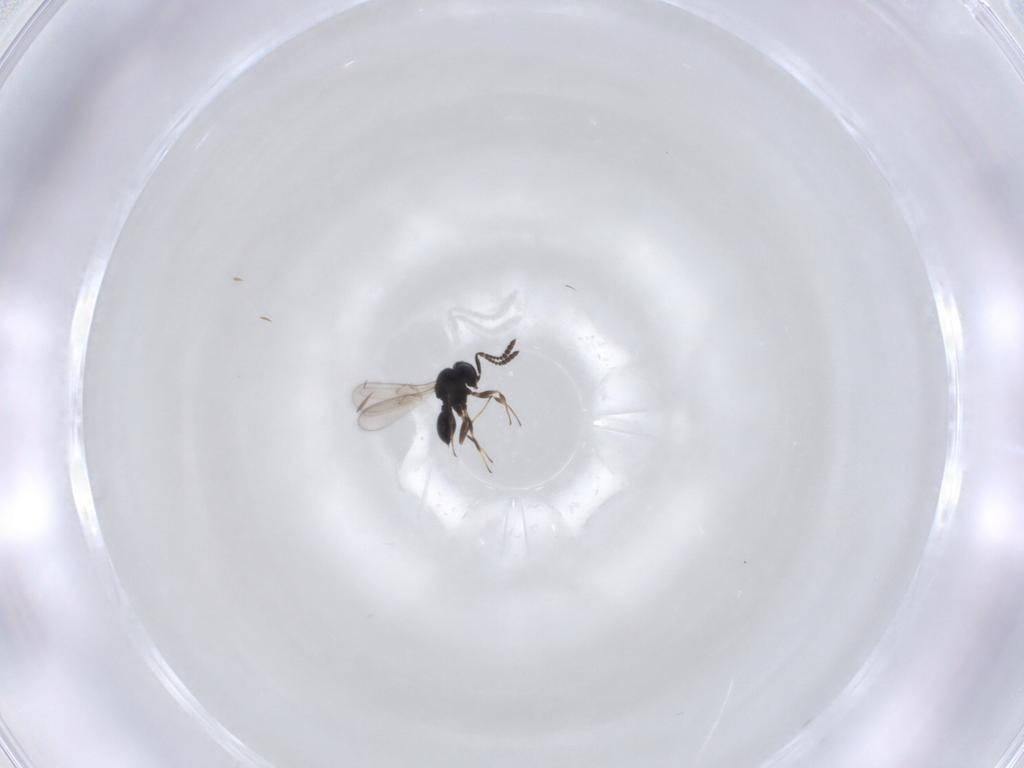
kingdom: Animalia
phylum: Arthropoda
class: Insecta
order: Hymenoptera
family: Scelionidae
